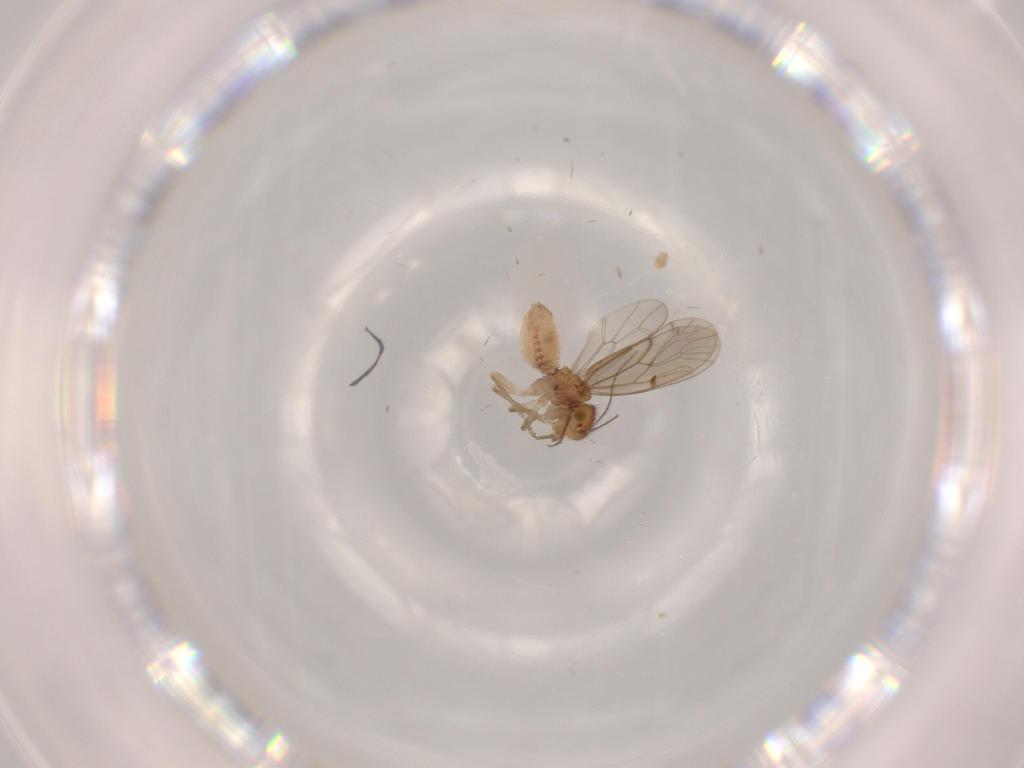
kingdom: Animalia
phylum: Arthropoda
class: Insecta
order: Psocodea
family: Ectopsocidae
